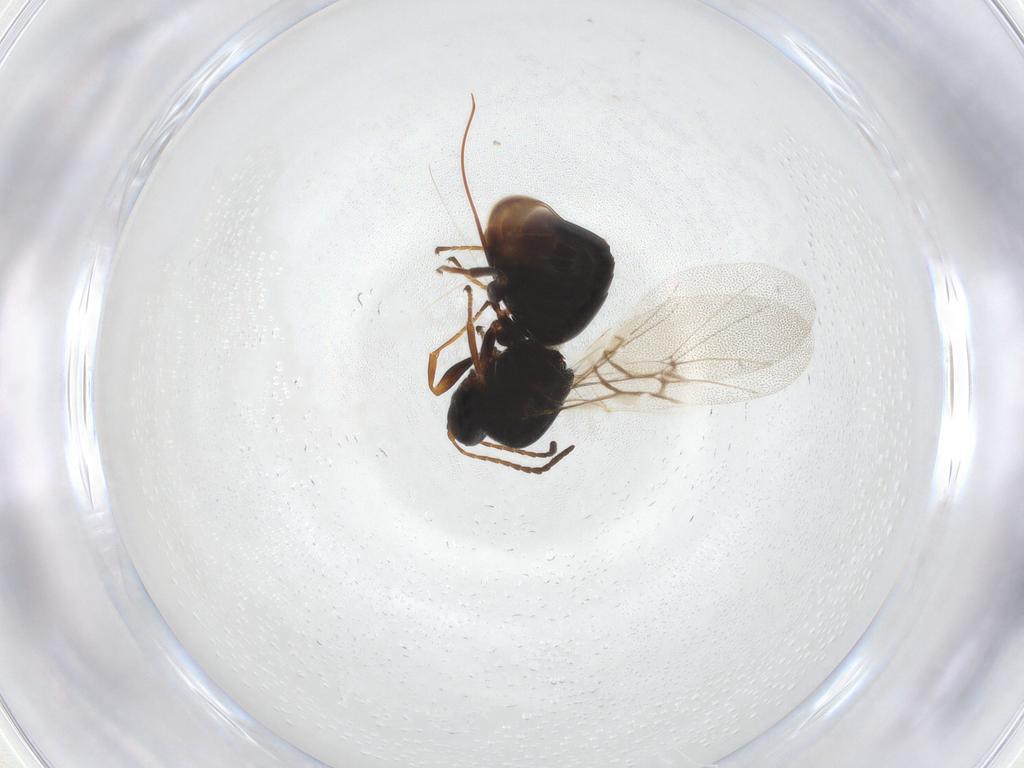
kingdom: Animalia
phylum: Arthropoda
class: Insecta
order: Hymenoptera
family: Cynipidae
